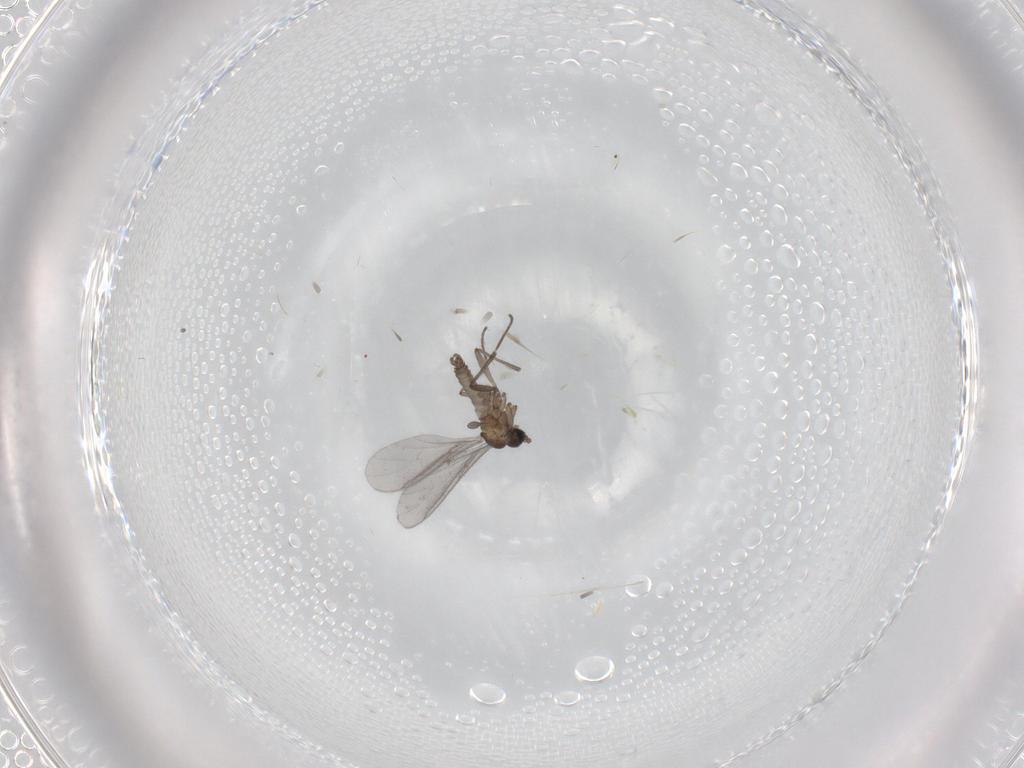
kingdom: Animalia
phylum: Arthropoda
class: Insecta
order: Diptera
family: Sciaridae
